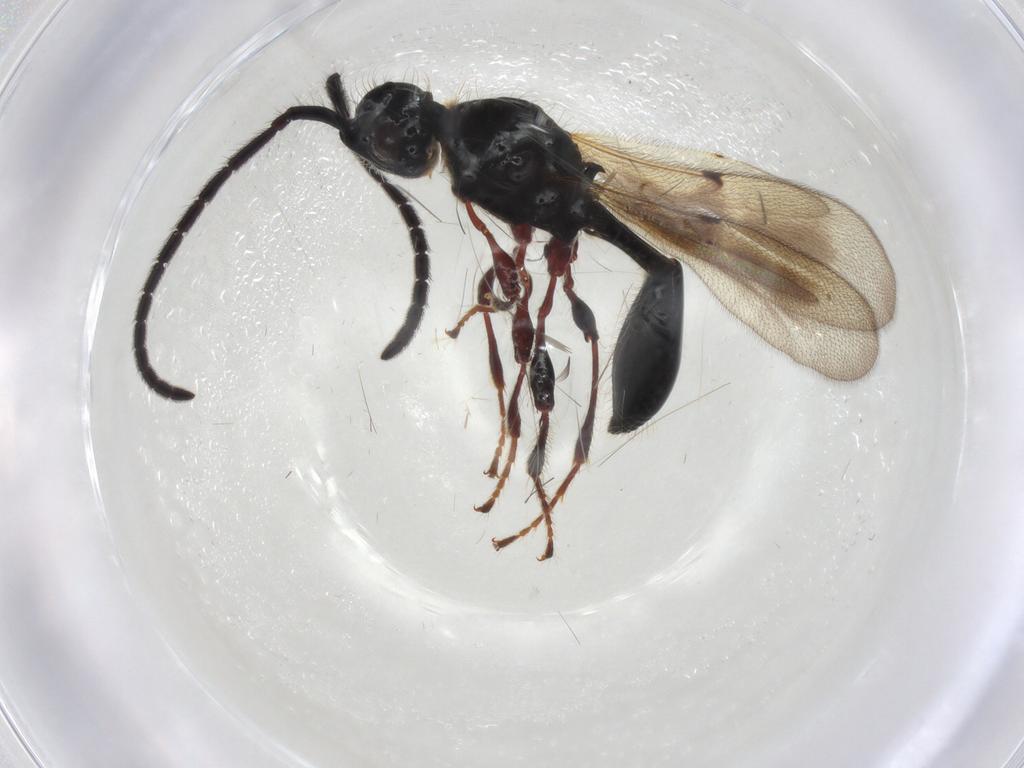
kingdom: Animalia
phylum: Arthropoda
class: Insecta
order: Hymenoptera
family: Diapriidae
